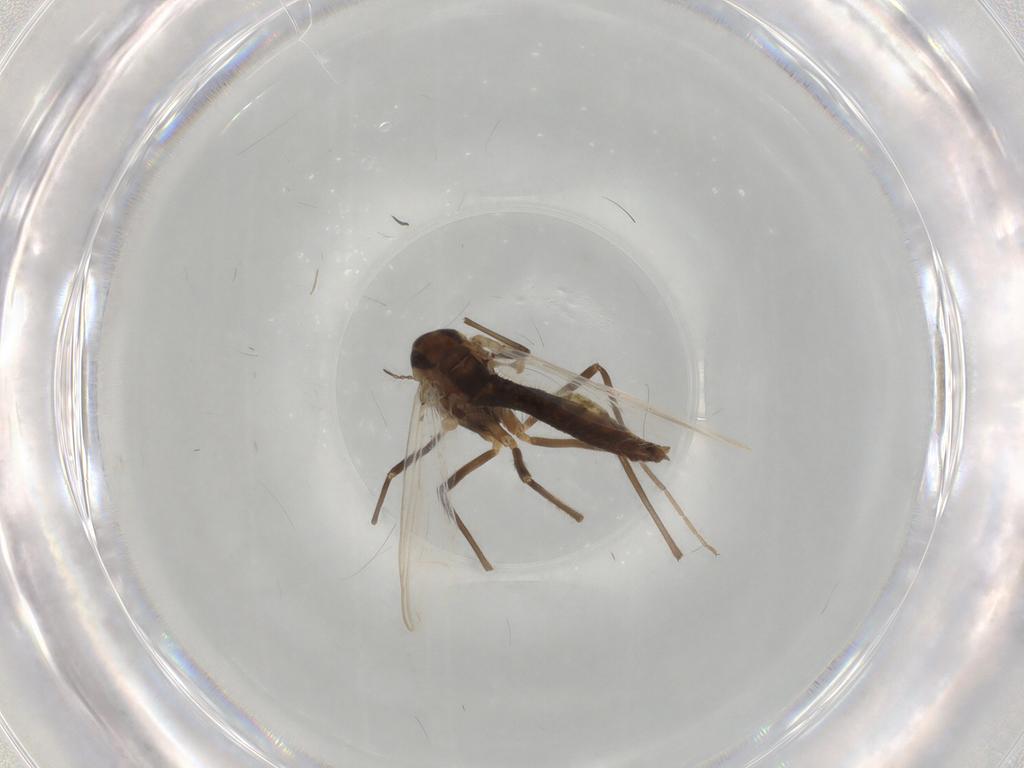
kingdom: Animalia
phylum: Arthropoda
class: Insecta
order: Diptera
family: Chironomidae
